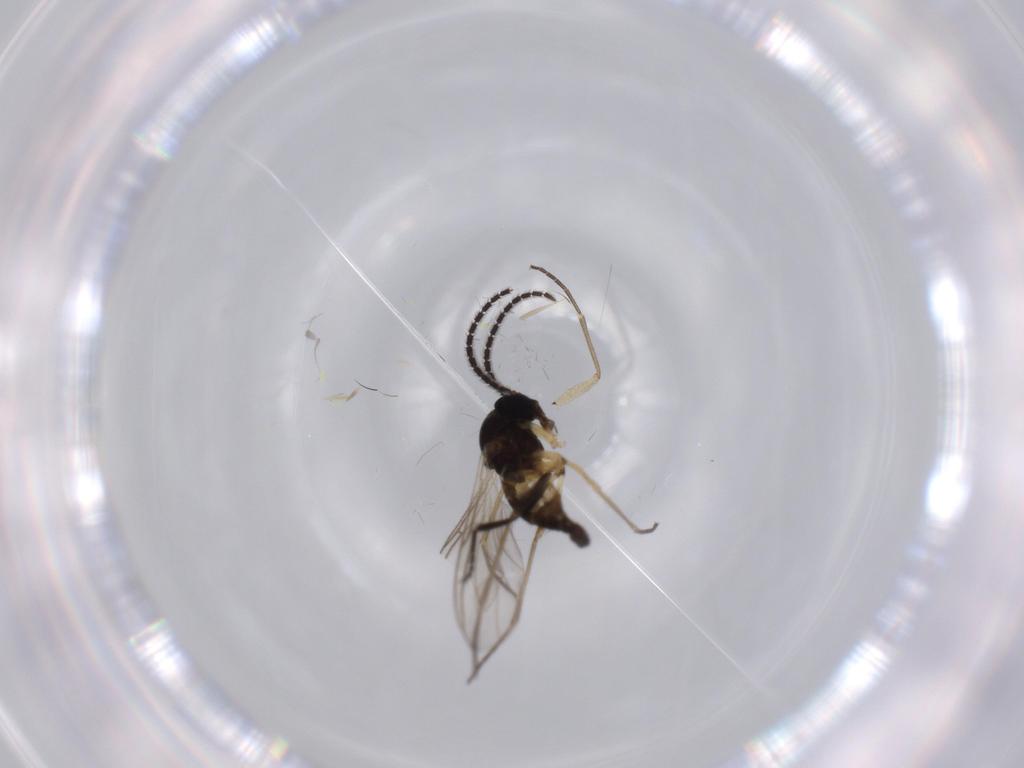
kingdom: Animalia
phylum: Arthropoda
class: Insecta
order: Diptera
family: Sciaridae
